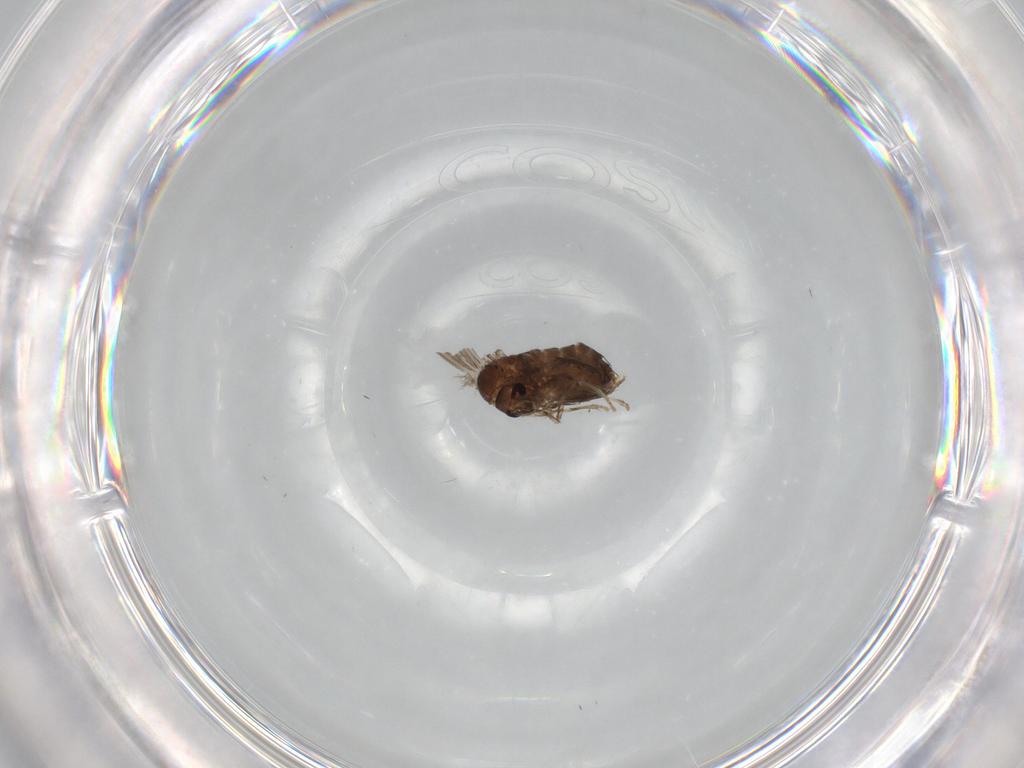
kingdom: Animalia
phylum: Arthropoda
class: Insecta
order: Diptera
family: Psychodidae
